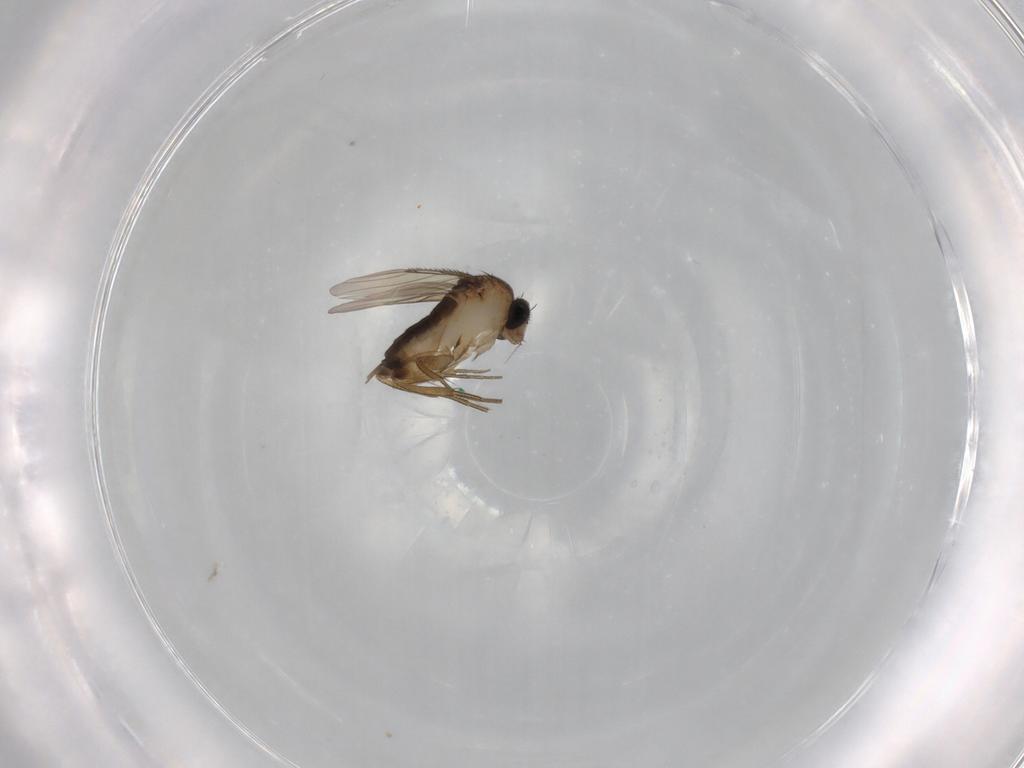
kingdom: Animalia
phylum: Arthropoda
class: Insecta
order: Diptera
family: Phoridae
